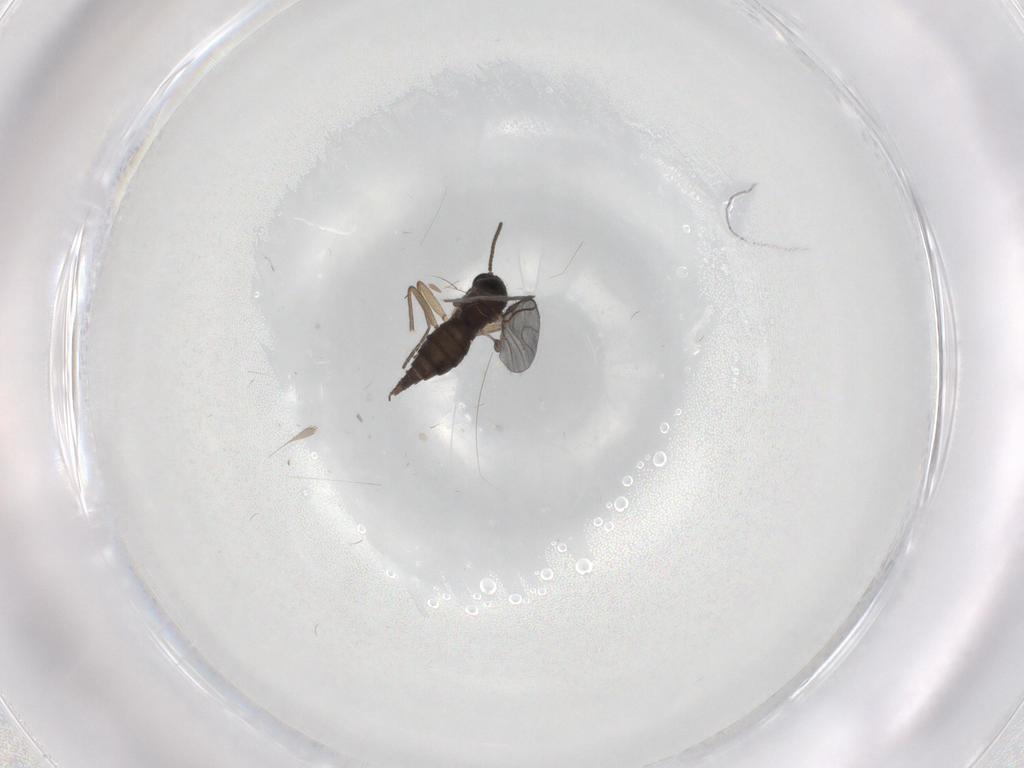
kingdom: Animalia
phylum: Arthropoda
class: Insecta
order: Diptera
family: Sciaridae
